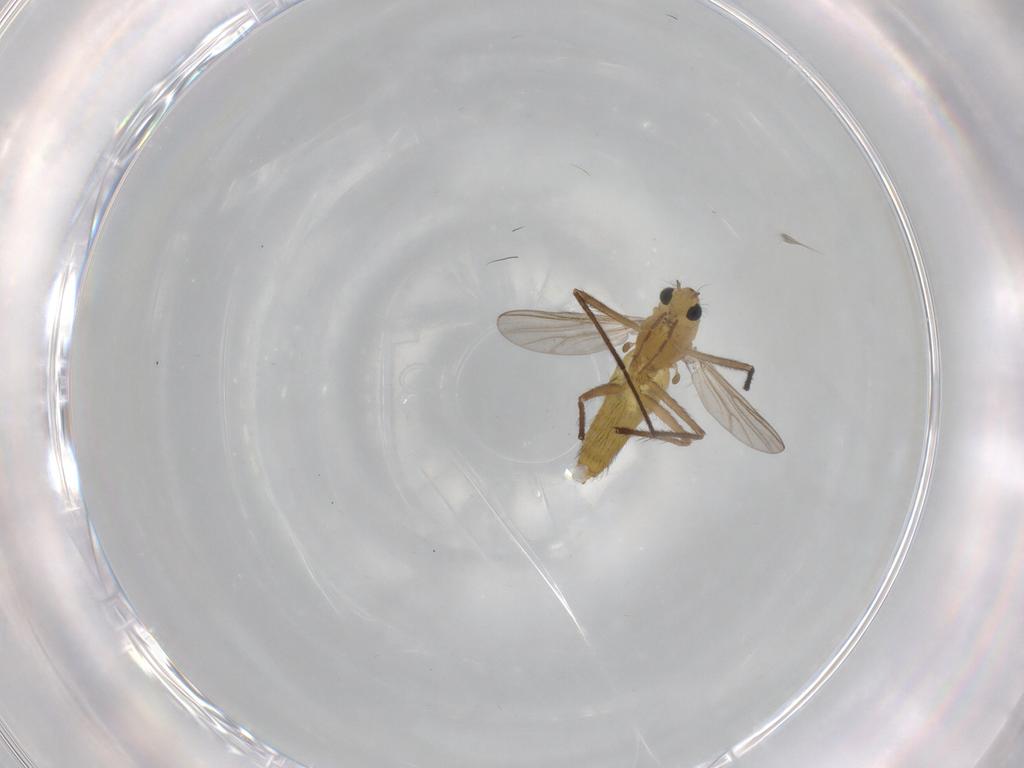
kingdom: Animalia
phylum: Arthropoda
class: Insecta
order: Diptera
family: Chironomidae
